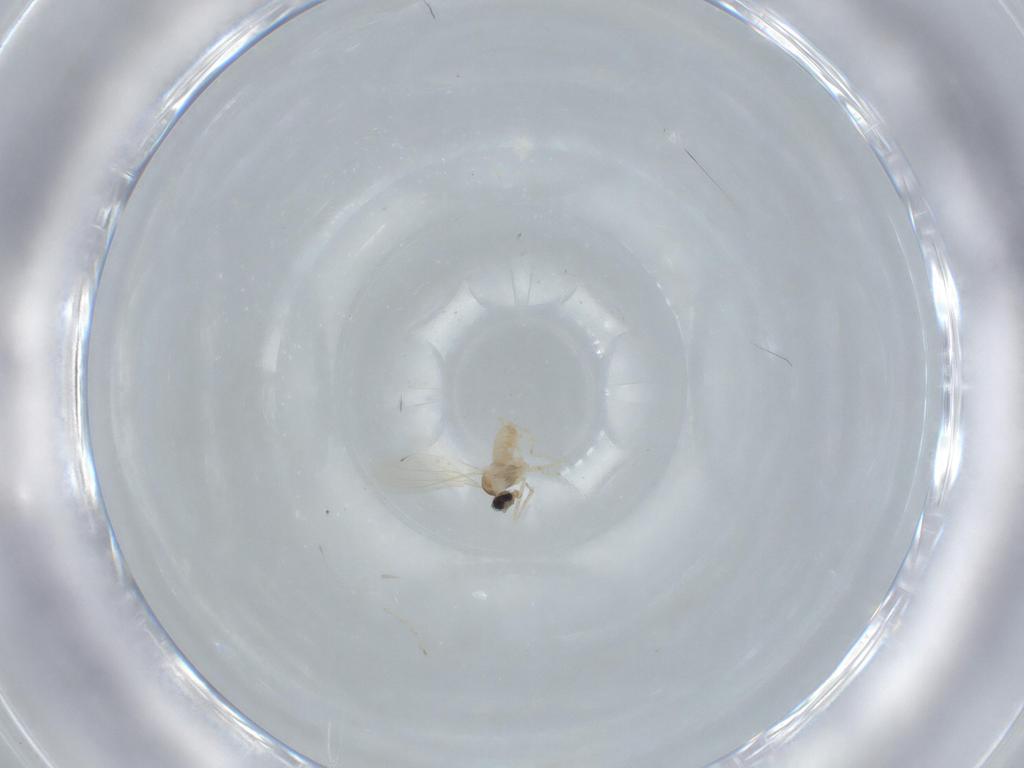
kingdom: Animalia
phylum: Arthropoda
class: Insecta
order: Diptera
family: Cecidomyiidae
